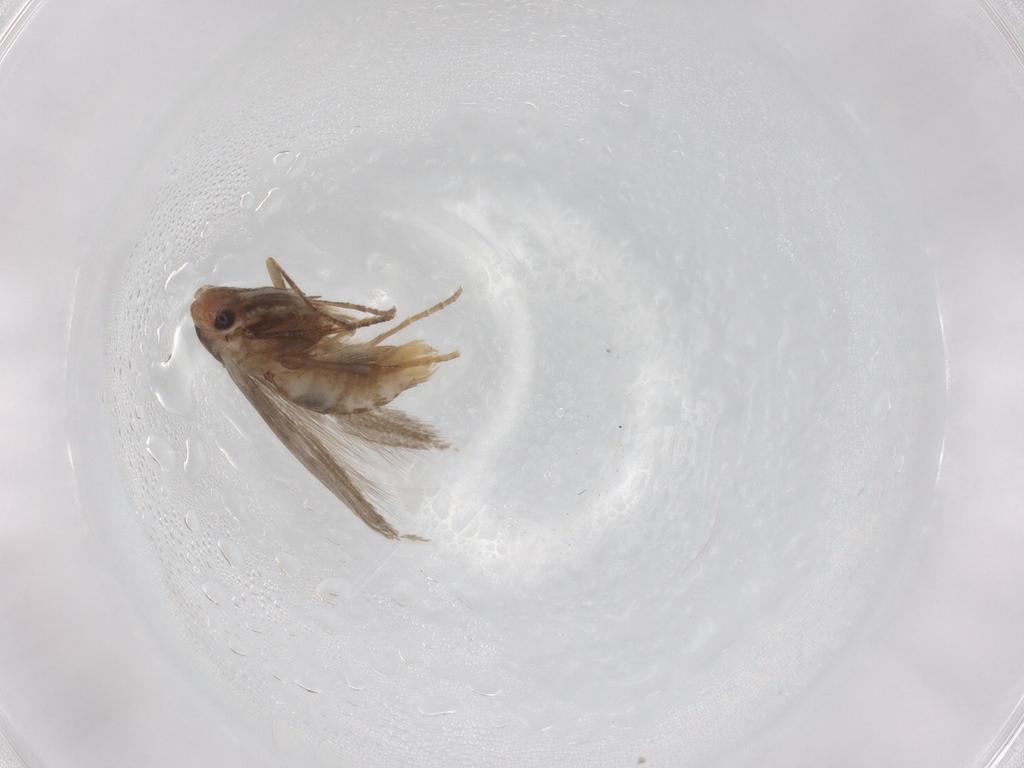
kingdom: Animalia
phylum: Arthropoda
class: Insecta
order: Lepidoptera
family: Bucculatricidae
